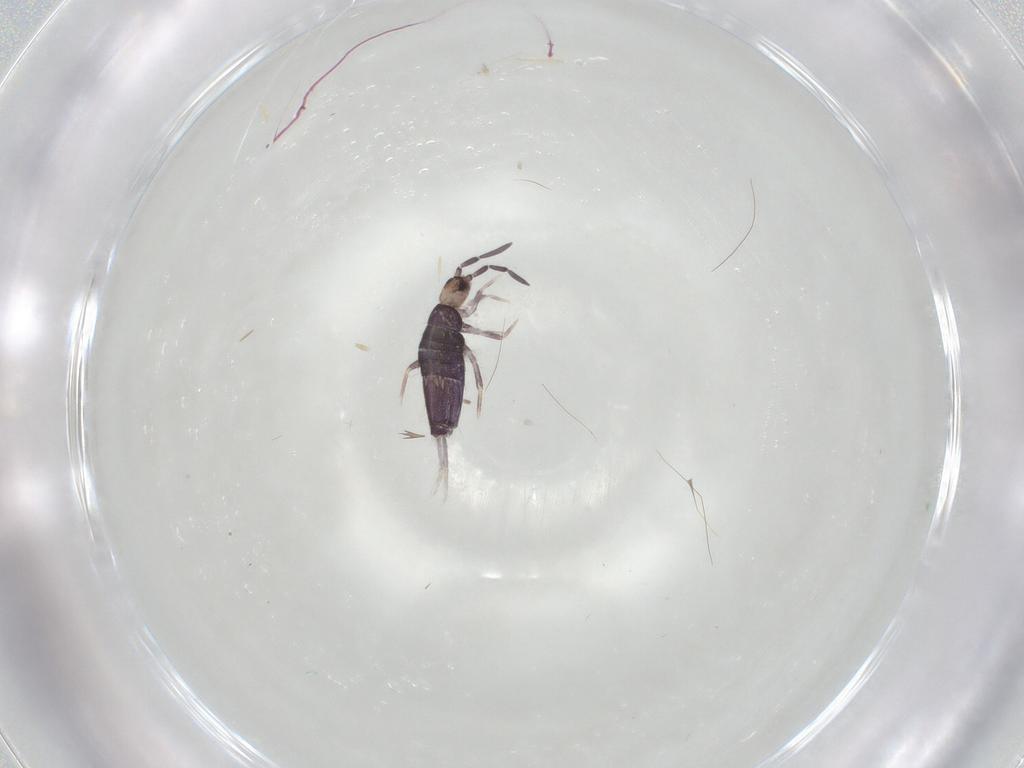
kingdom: Animalia
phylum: Arthropoda
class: Collembola
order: Entomobryomorpha
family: Entomobryidae
